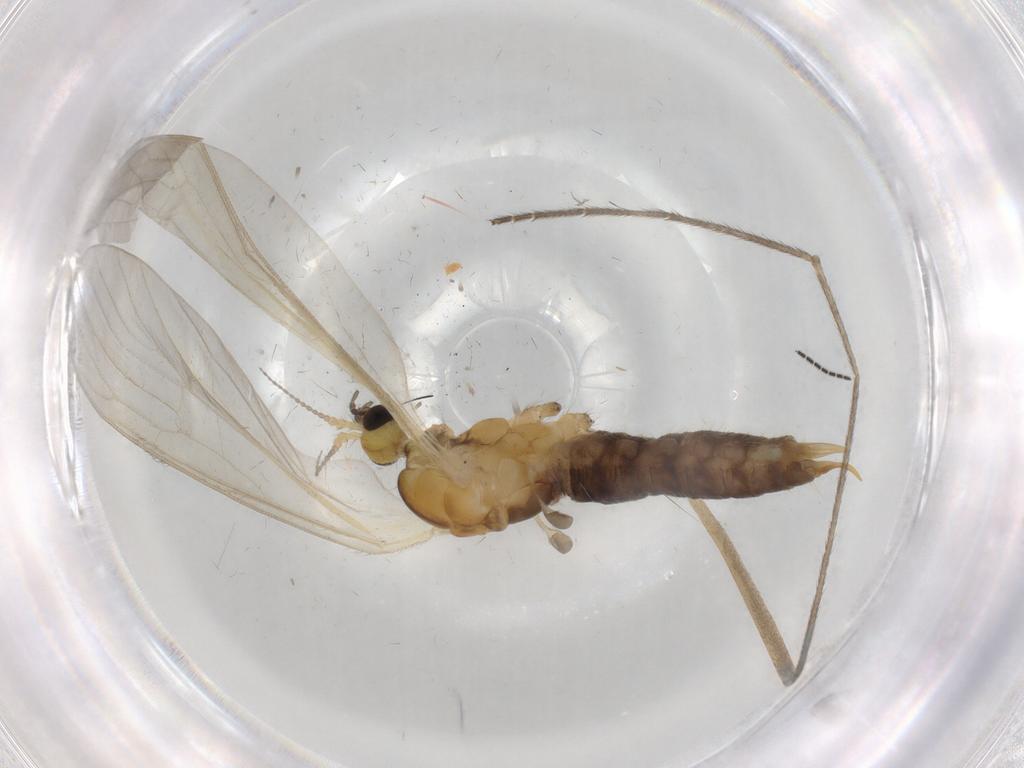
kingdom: Animalia
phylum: Arthropoda
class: Insecta
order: Diptera
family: Limoniidae
